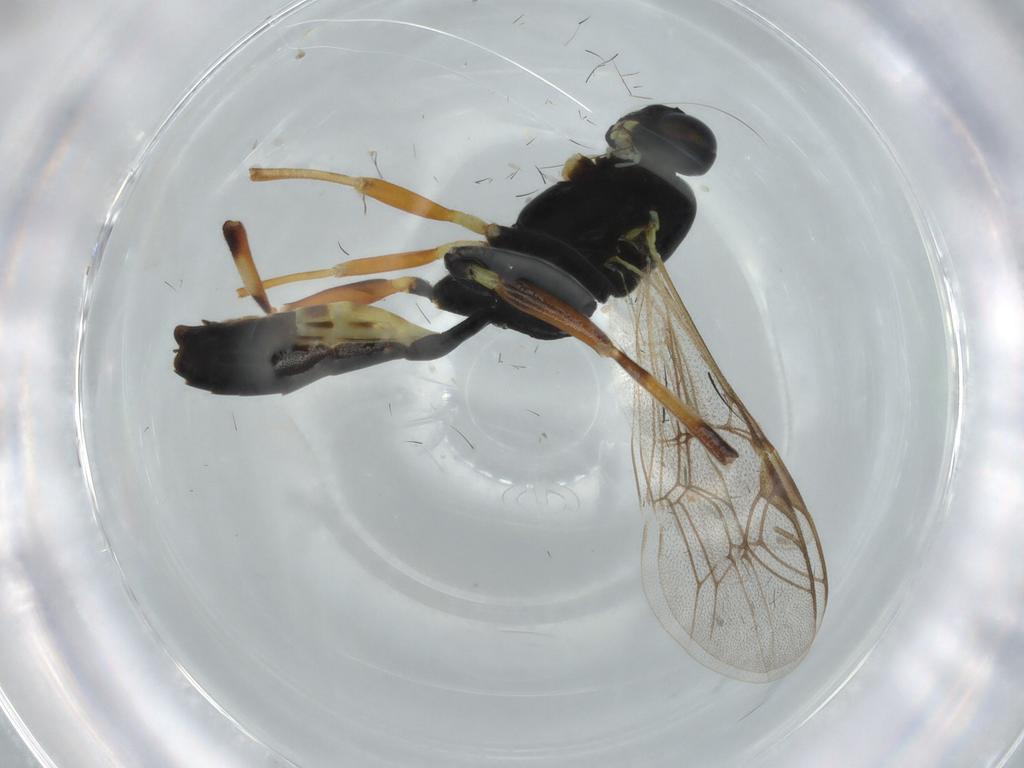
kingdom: Animalia
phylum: Arthropoda
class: Insecta
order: Hymenoptera
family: Ichneumonidae
